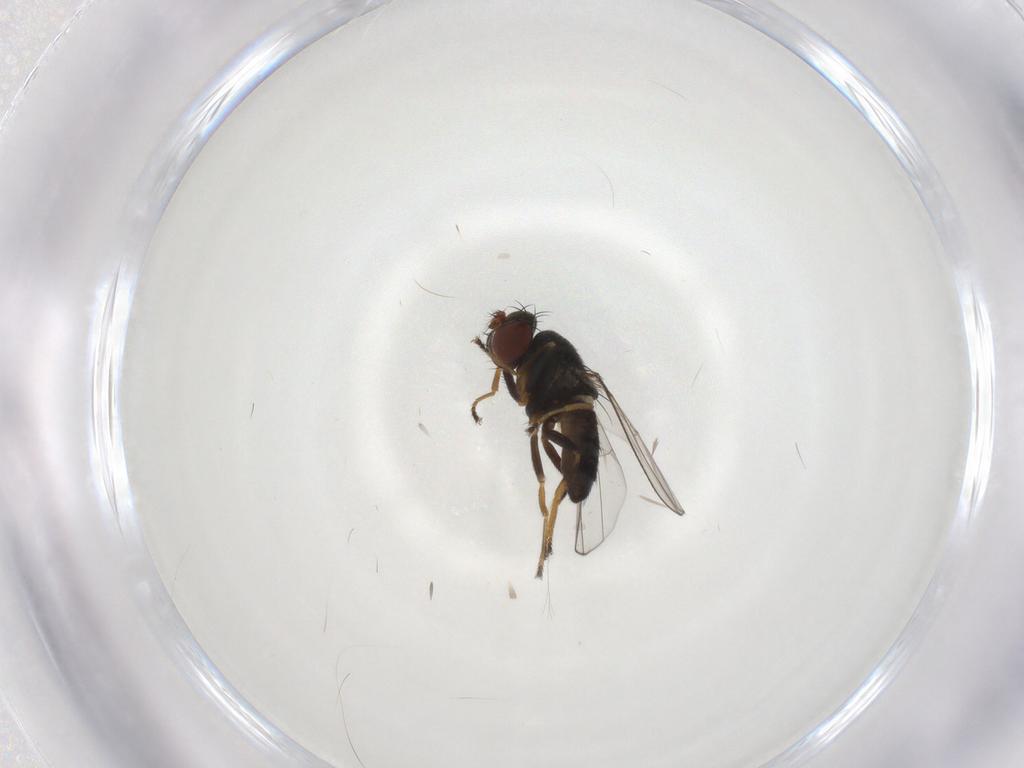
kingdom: Animalia
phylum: Arthropoda
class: Insecta
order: Diptera
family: Ephydridae
